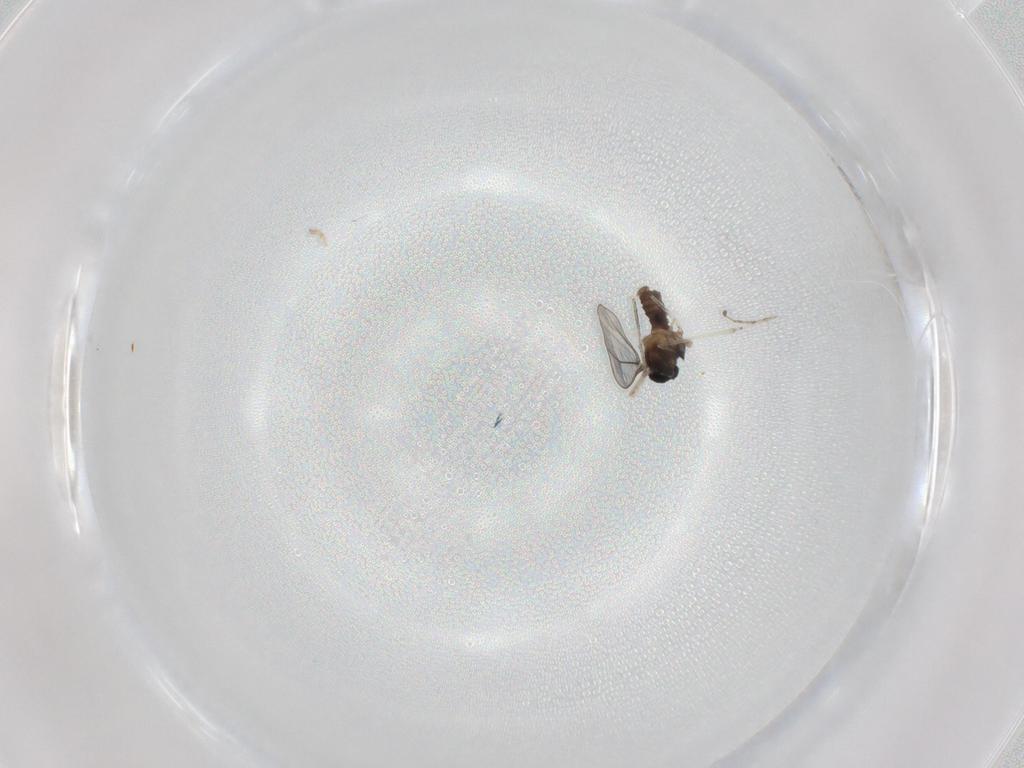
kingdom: Animalia
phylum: Arthropoda
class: Insecta
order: Diptera
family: Cecidomyiidae
